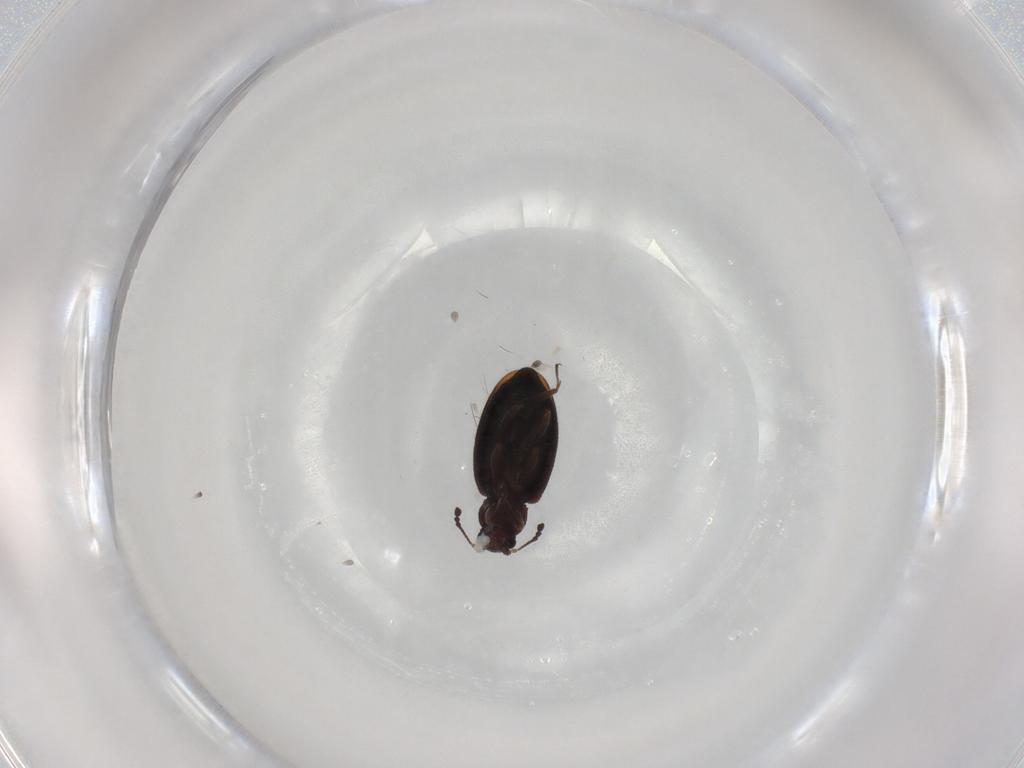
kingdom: Animalia
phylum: Arthropoda
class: Insecta
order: Coleoptera
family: Latridiidae
